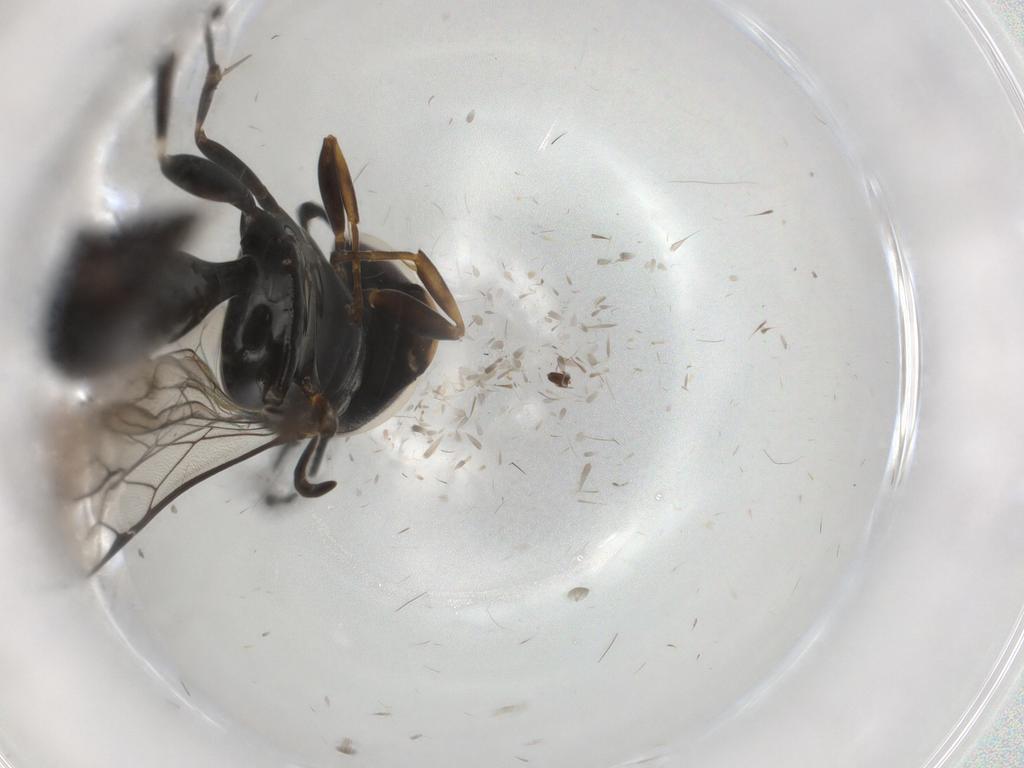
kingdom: Animalia
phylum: Arthropoda
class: Insecta
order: Hymenoptera
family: Crabronidae
